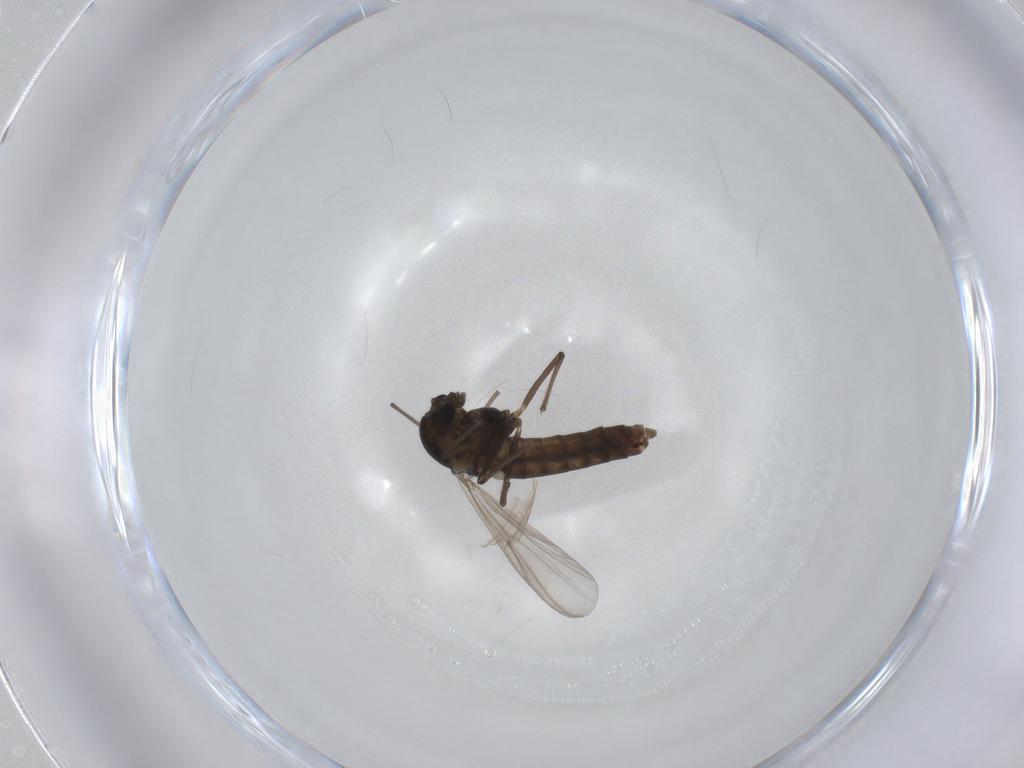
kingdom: Animalia
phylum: Arthropoda
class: Insecta
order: Diptera
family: Chironomidae
